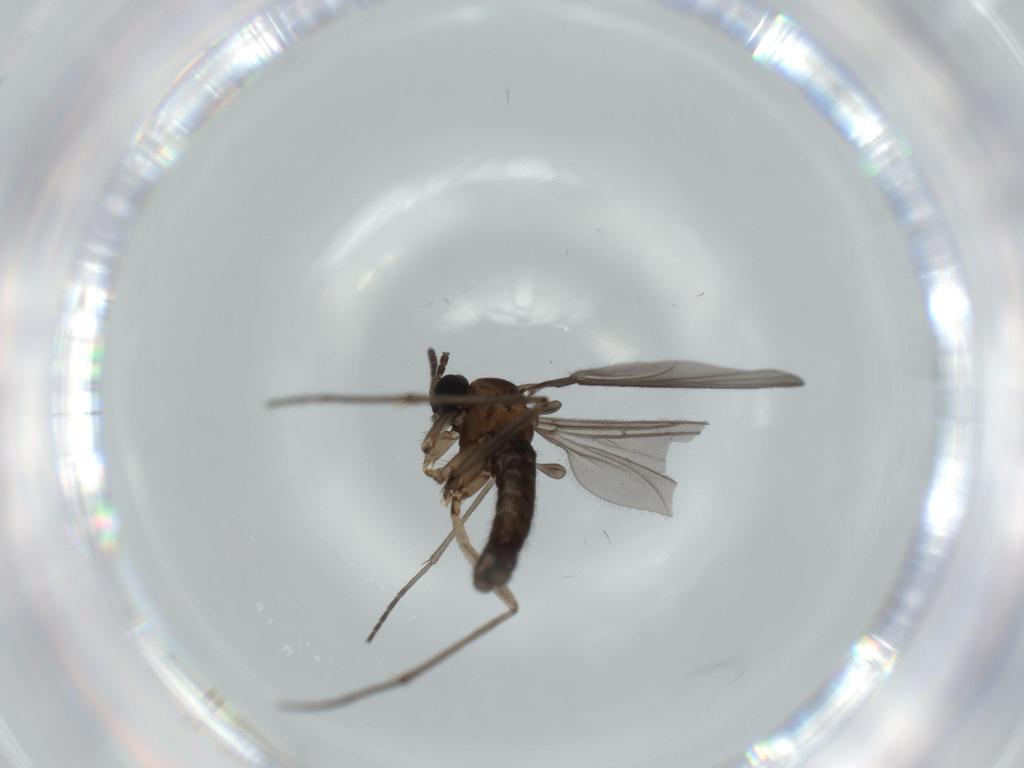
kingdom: Animalia
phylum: Arthropoda
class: Insecta
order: Diptera
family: Sciaridae
